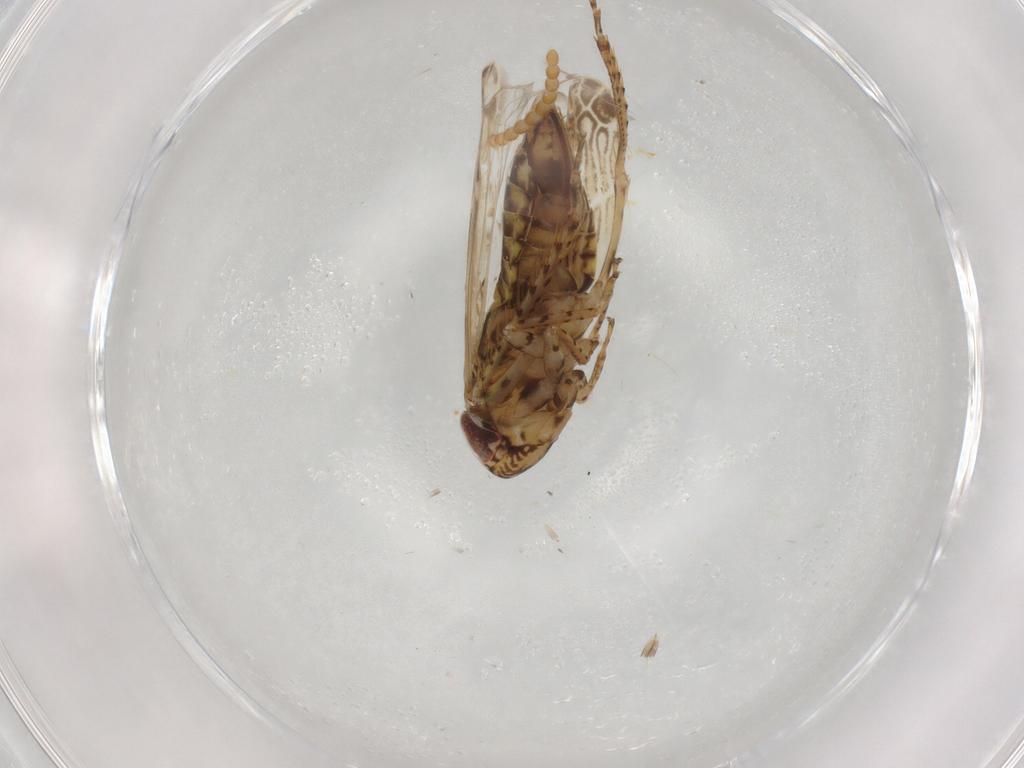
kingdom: Animalia
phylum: Arthropoda
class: Insecta
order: Hemiptera
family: Cicadellidae
